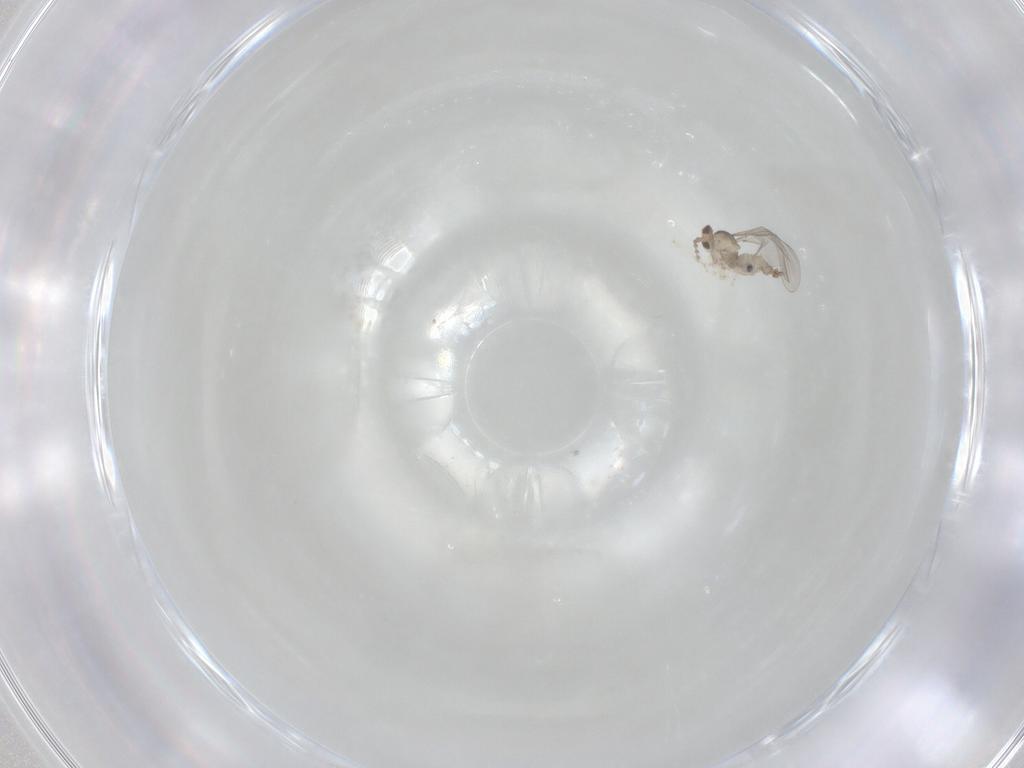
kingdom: Animalia
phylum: Arthropoda
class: Insecta
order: Diptera
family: Cecidomyiidae
